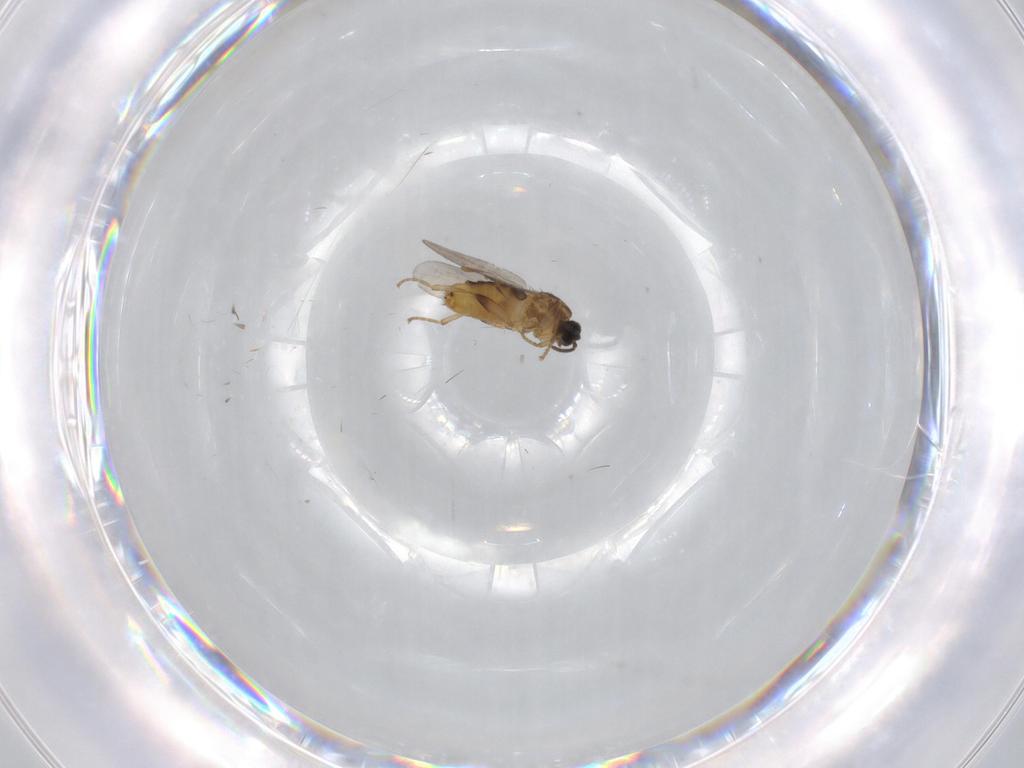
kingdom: Animalia
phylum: Arthropoda
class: Insecta
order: Diptera
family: Scatopsidae
